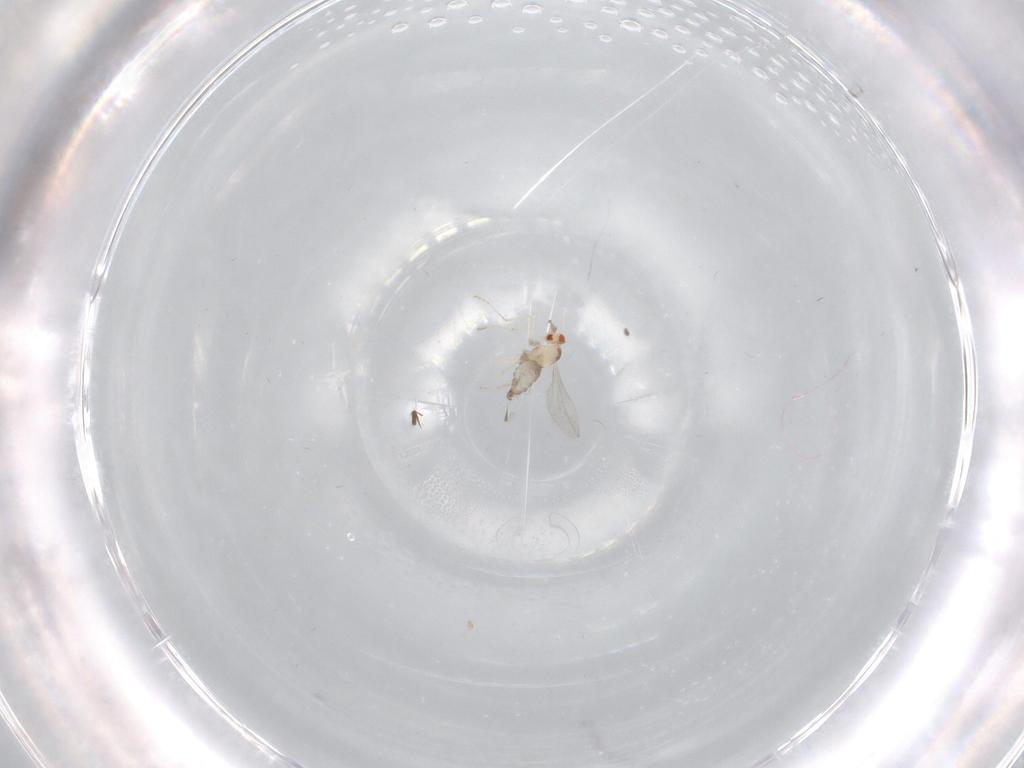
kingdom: Animalia
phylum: Arthropoda
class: Insecta
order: Diptera
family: Cecidomyiidae
